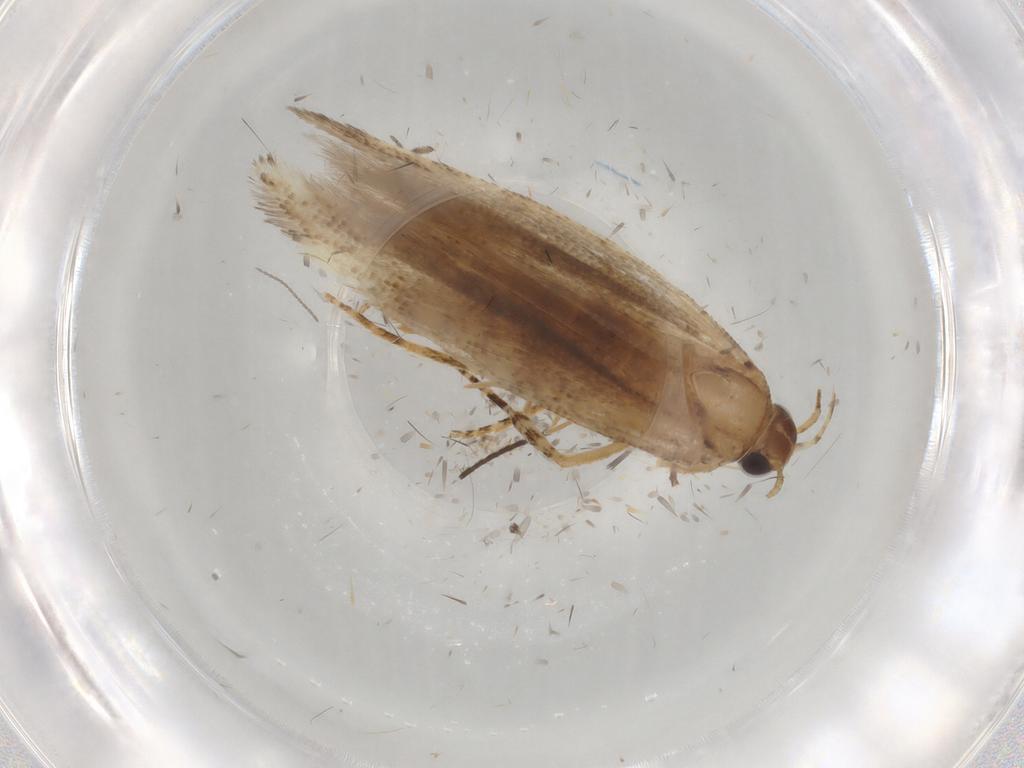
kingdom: Animalia
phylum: Arthropoda
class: Insecta
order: Lepidoptera
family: Gelechiidae
